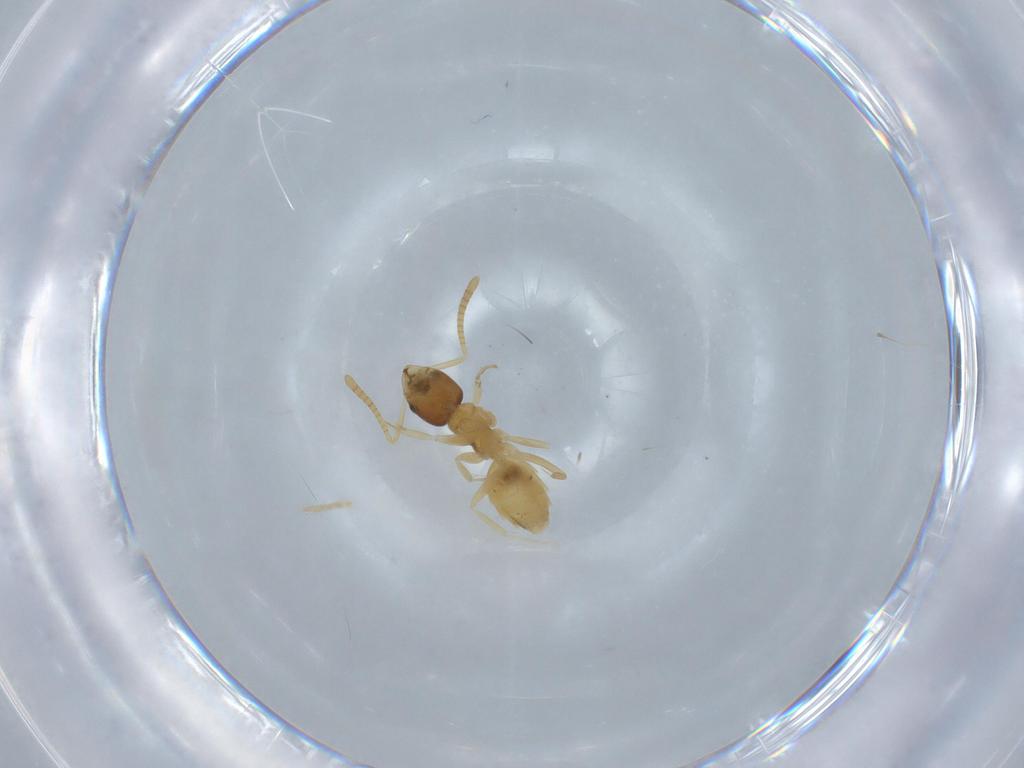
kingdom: Animalia
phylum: Arthropoda
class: Insecta
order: Hymenoptera
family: Formicidae
